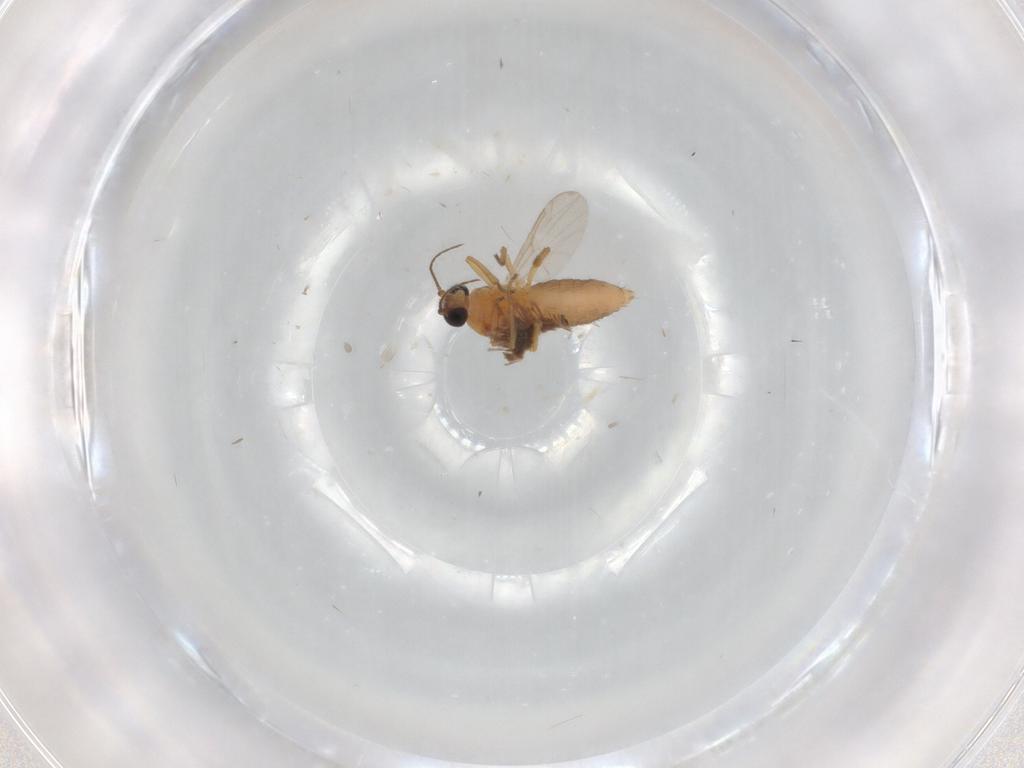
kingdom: Animalia
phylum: Arthropoda
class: Insecta
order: Diptera
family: Ceratopogonidae
